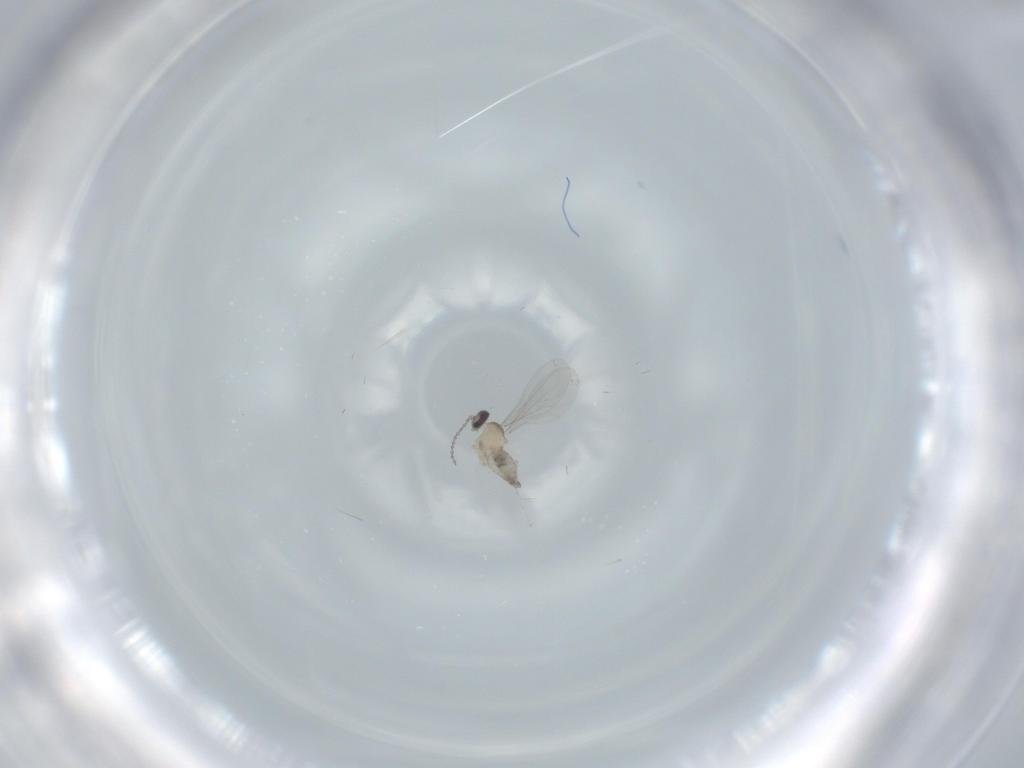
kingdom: Animalia
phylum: Arthropoda
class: Insecta
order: Diptera
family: Cecidomyiidae
